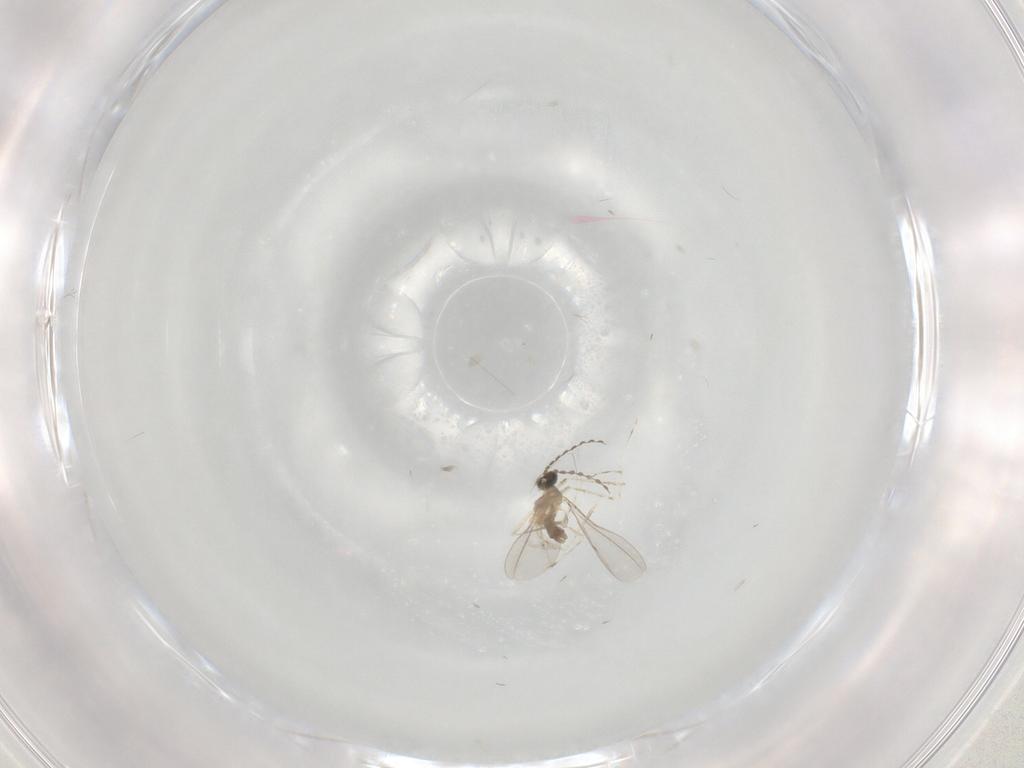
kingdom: Animalia
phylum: Arthropoda
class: Insecta
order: Diptera
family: Cecidomyiidae
